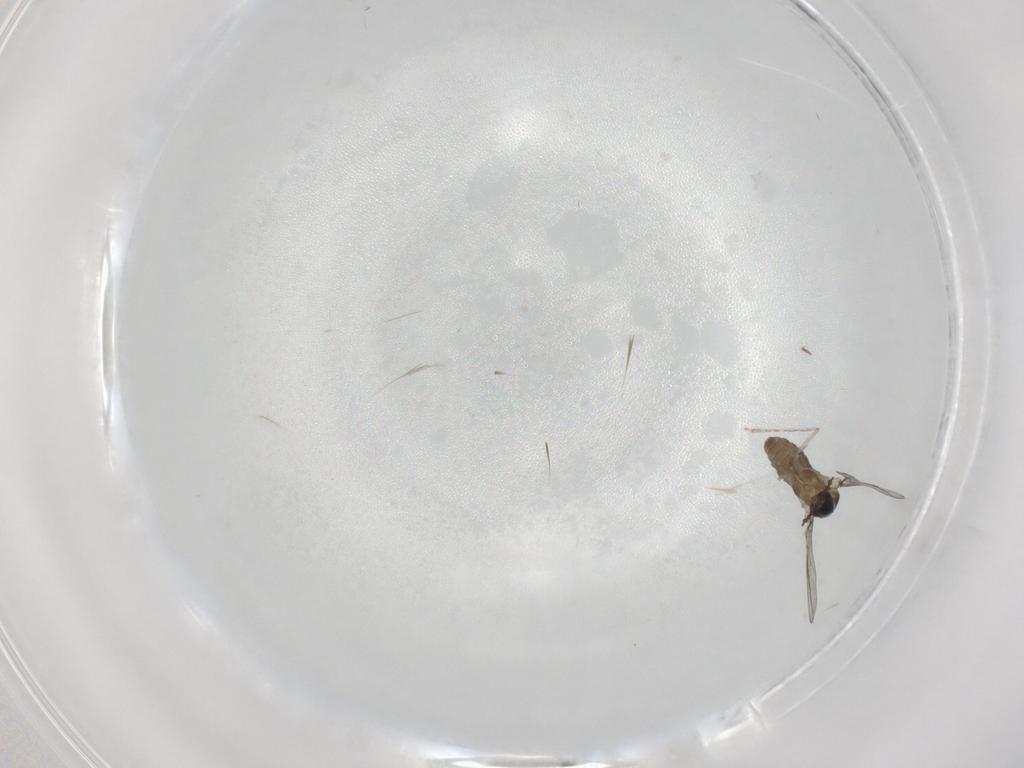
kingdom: Animalia
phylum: Arthropoda
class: Insecta
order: Diptera
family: Cecidomyiidae
